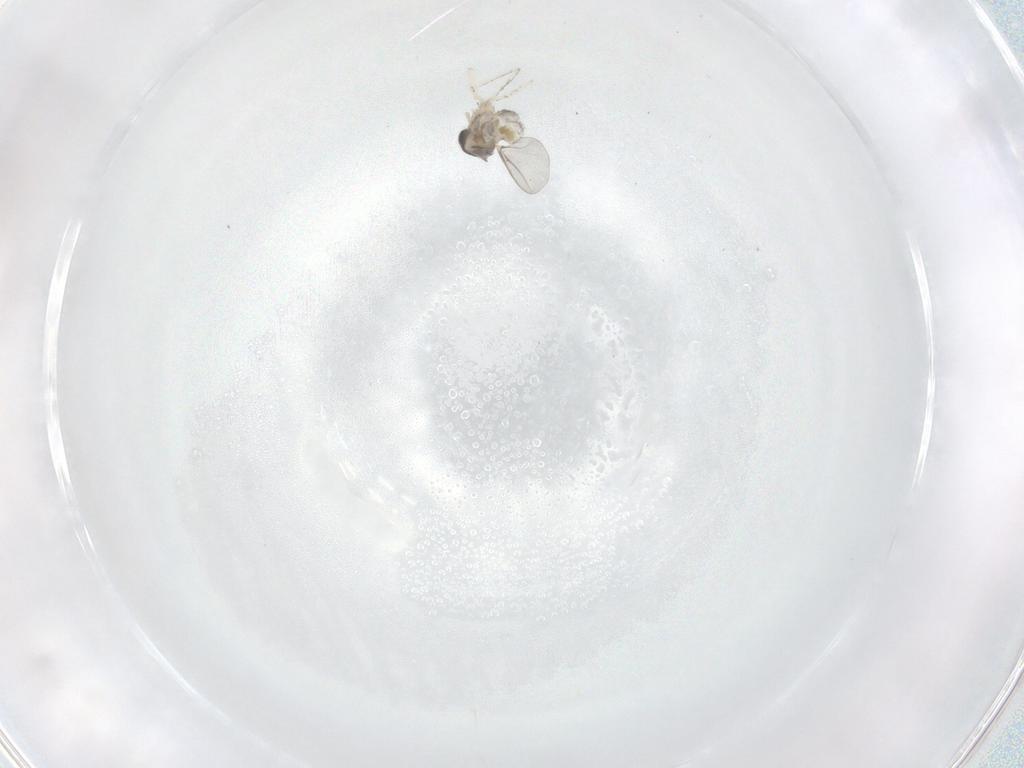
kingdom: Animalia
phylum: Arthropoda
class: Insecta
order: Diptera
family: Cecidomyiidae
